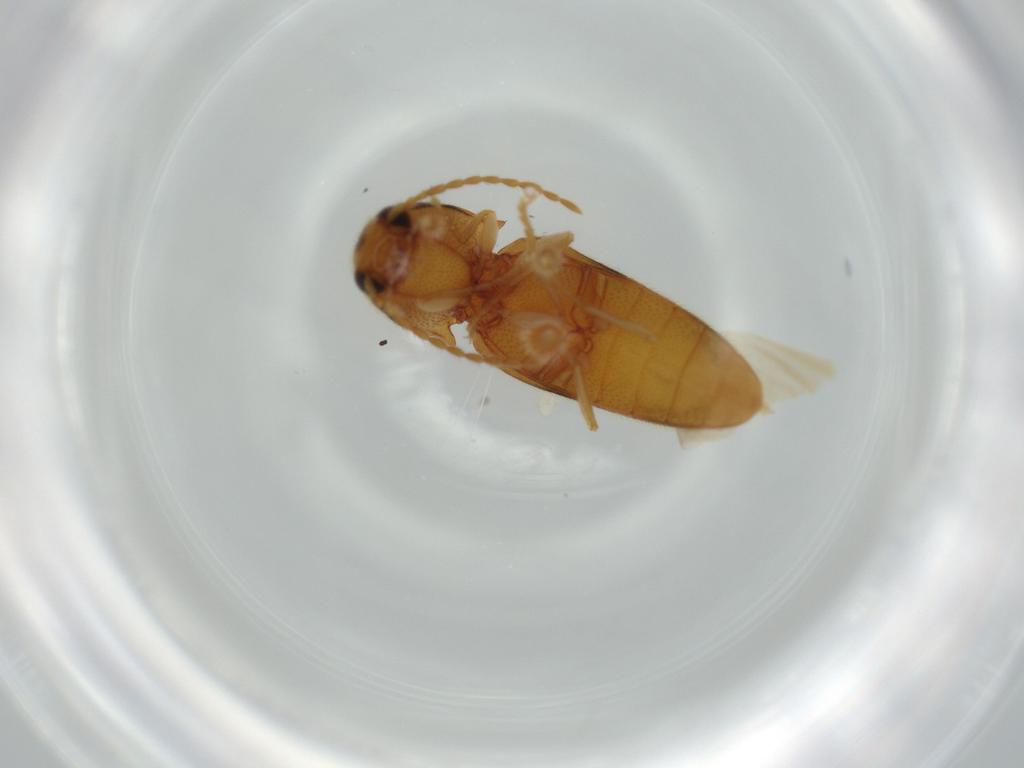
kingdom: Animalia
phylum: Arthropoda
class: Insecta
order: Coleoptera
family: Elateridae
